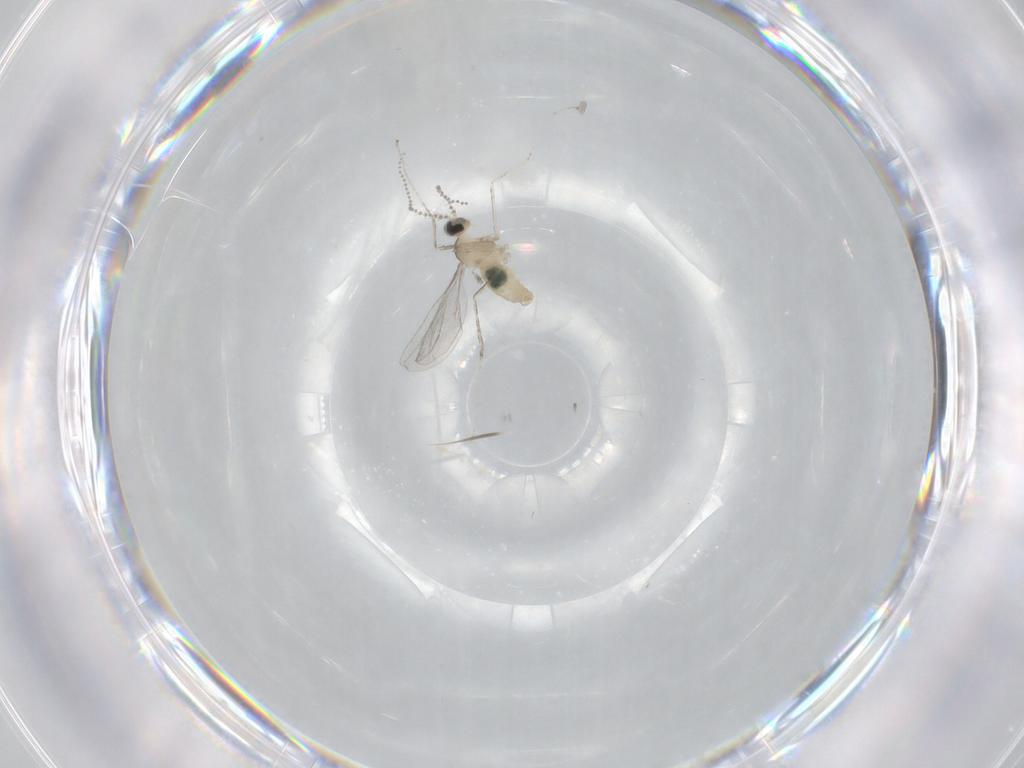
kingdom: Animalia
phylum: Arthropoda
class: Insecta
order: Diptera
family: Cecidomyiidae
